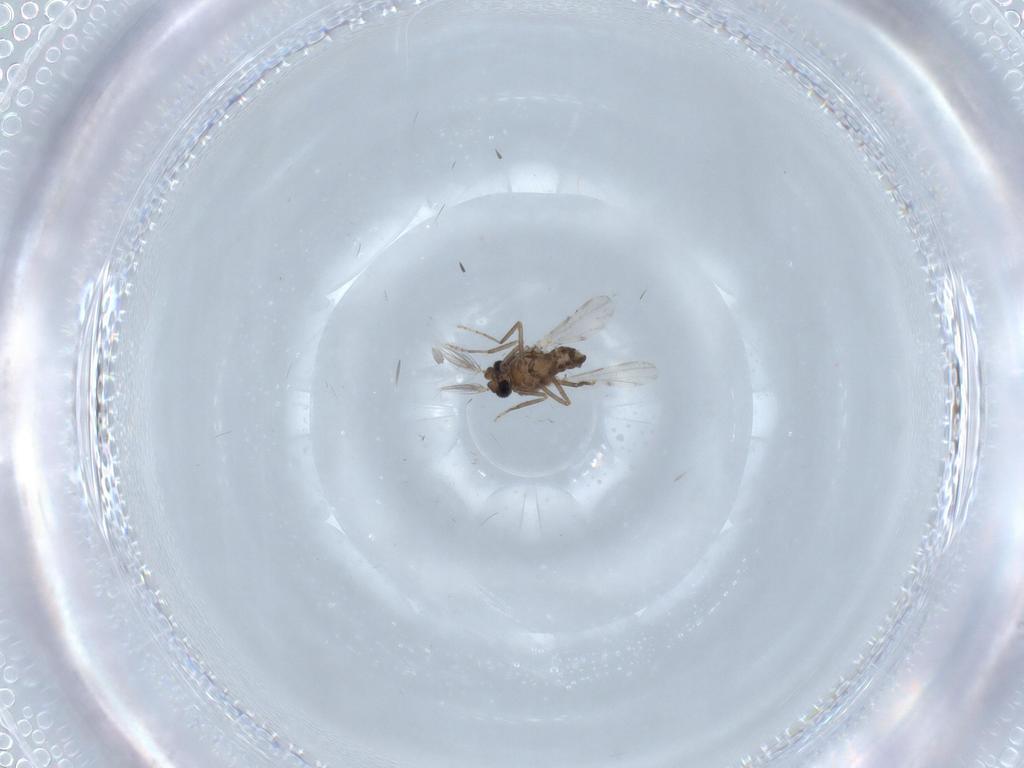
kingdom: Animalia
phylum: Arthropoda
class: Insecta
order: Diptera
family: Ceratopogonidae
